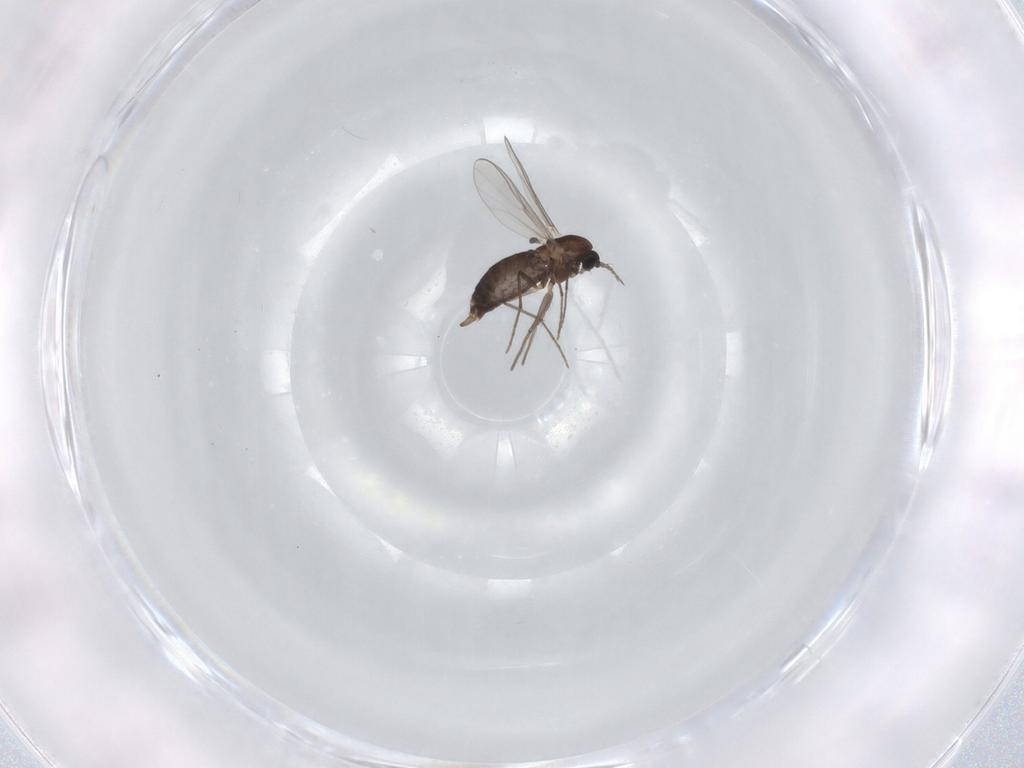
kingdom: Animalia
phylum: Arthropoda
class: Insecta
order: Diptera
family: Chironomidae
